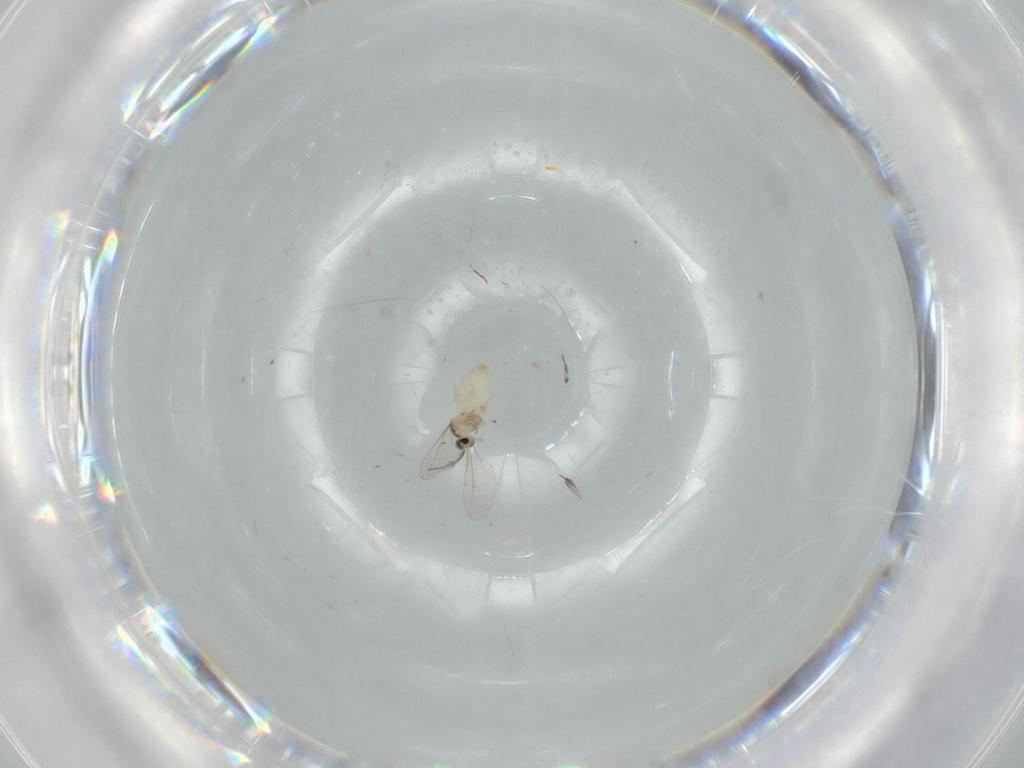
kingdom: Animalia
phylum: Arthropoda
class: Insecta
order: Diptera
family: Cecidomyiidae
